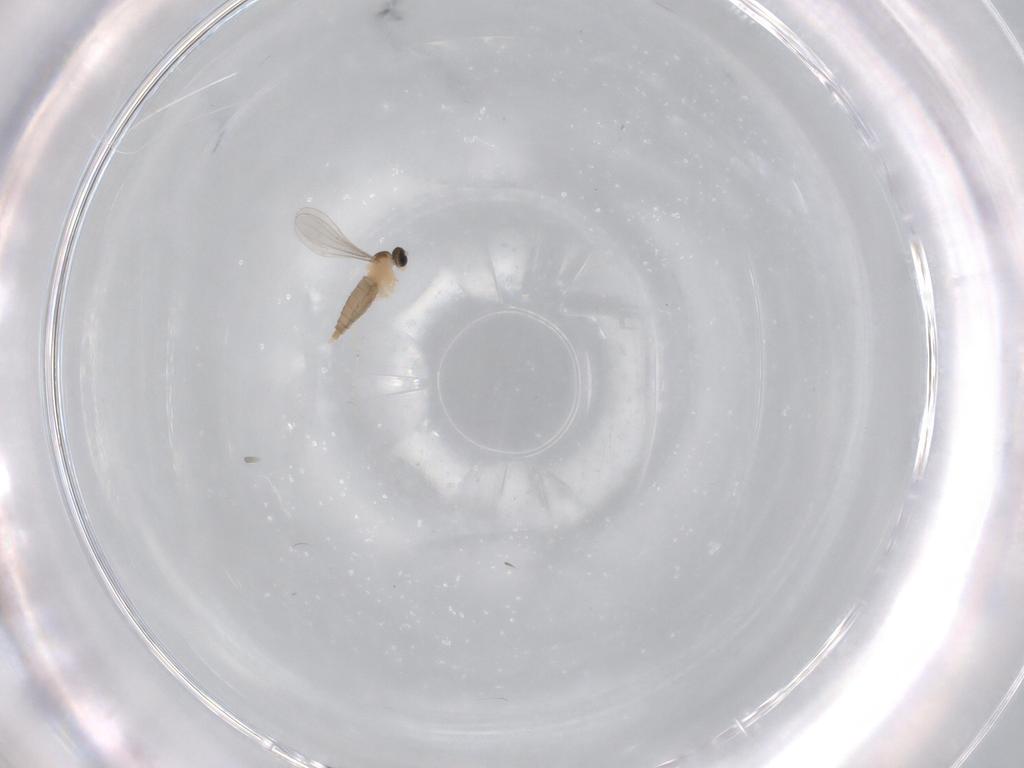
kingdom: Animalia
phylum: Arthropoda
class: Insecta
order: Diptera
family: Cecidomyiidae
